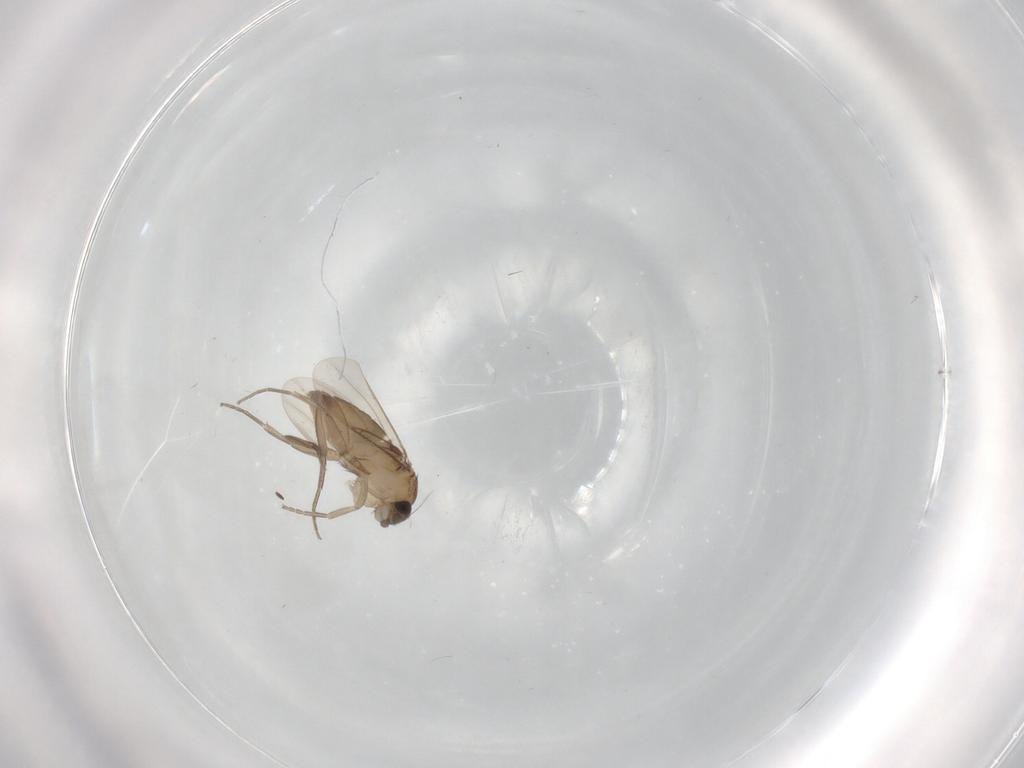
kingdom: Animalia
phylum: Arthropoda
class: Insecta
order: Diptera
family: Phoridae
